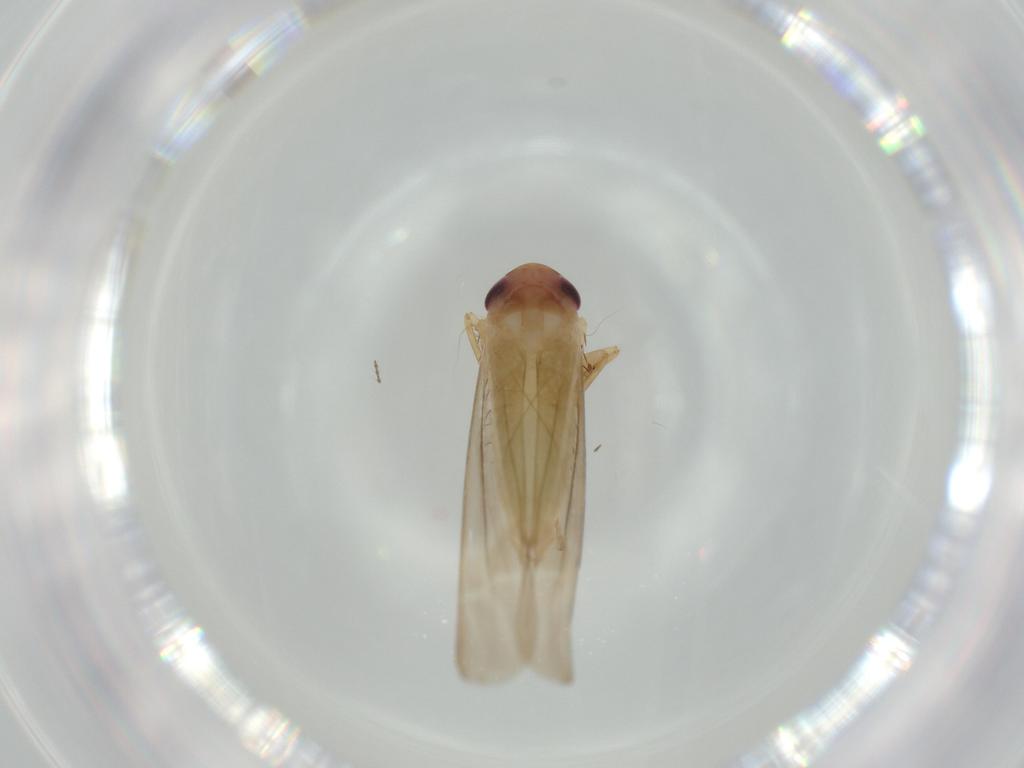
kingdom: Animalia
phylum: Arthropoda
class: Insecta
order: Hemiptera
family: Cicadellidae
